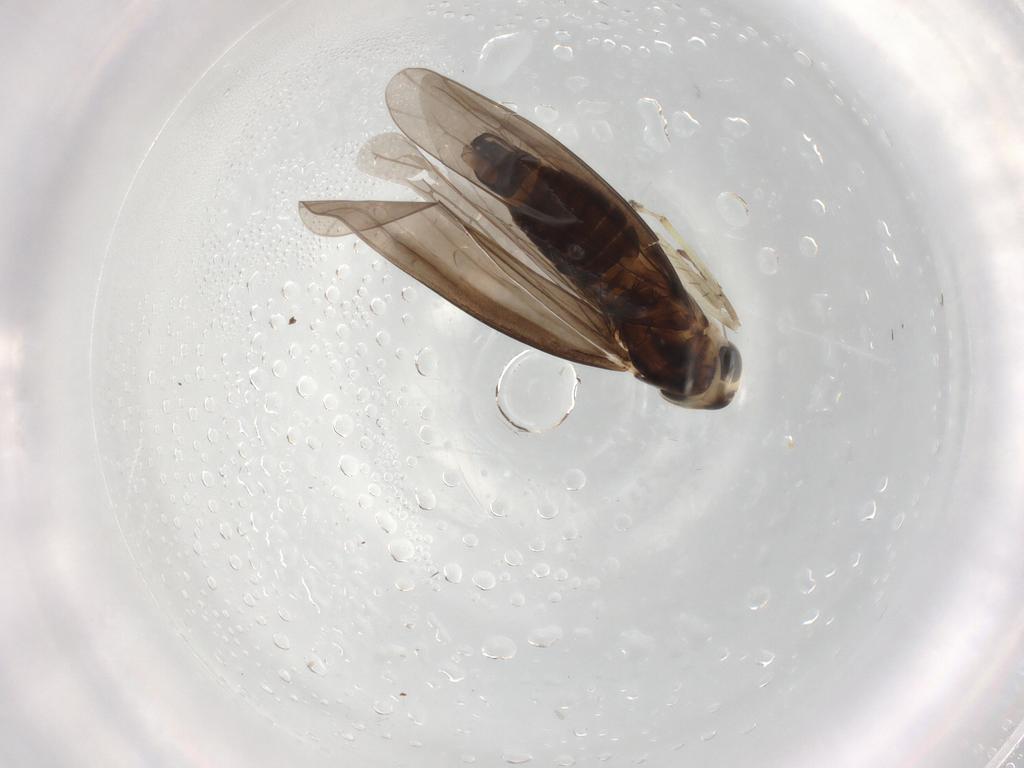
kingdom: Animalia
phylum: Arthropoda
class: Insecta
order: Hemiptera
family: Cicadellidae
